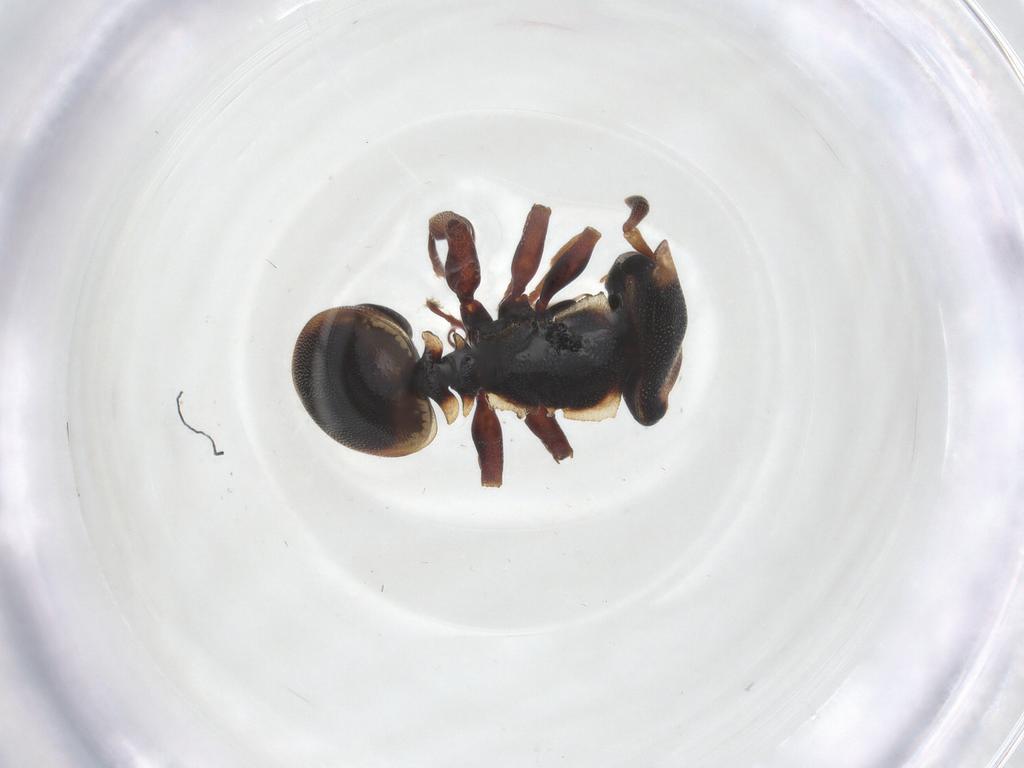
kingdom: Animalia
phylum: Arthropoda
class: Insecta
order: Hymenoptera
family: Formicidae
